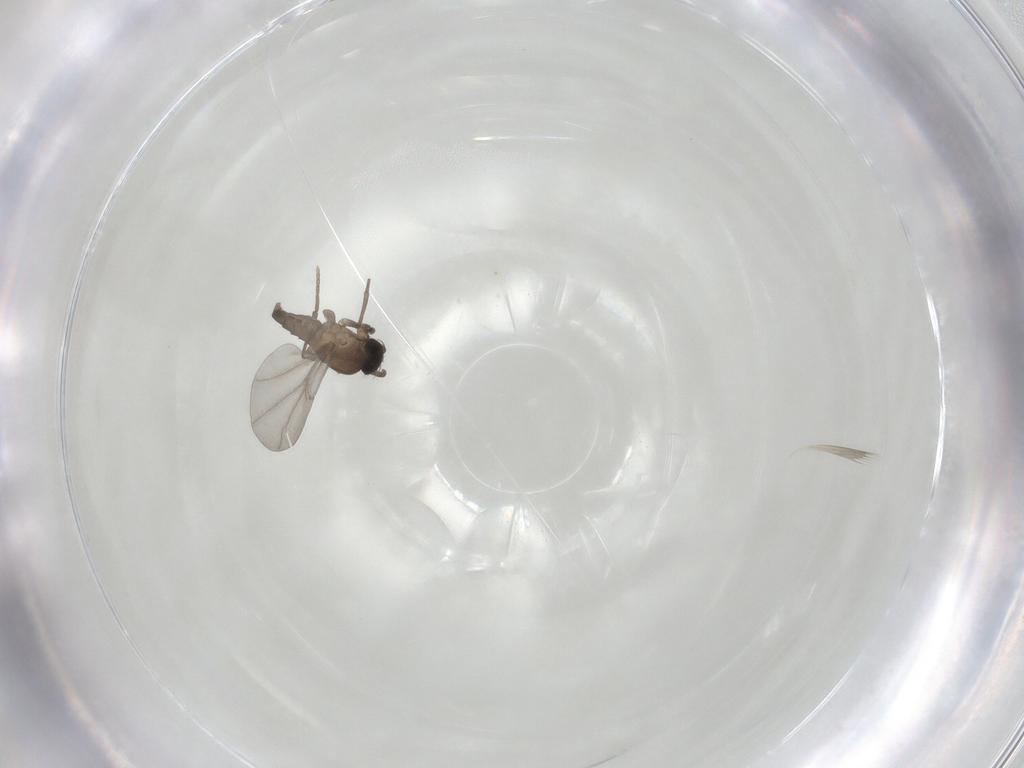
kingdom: Animalia
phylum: Arthropoda
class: Insecta
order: Diptera
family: Phoridae
